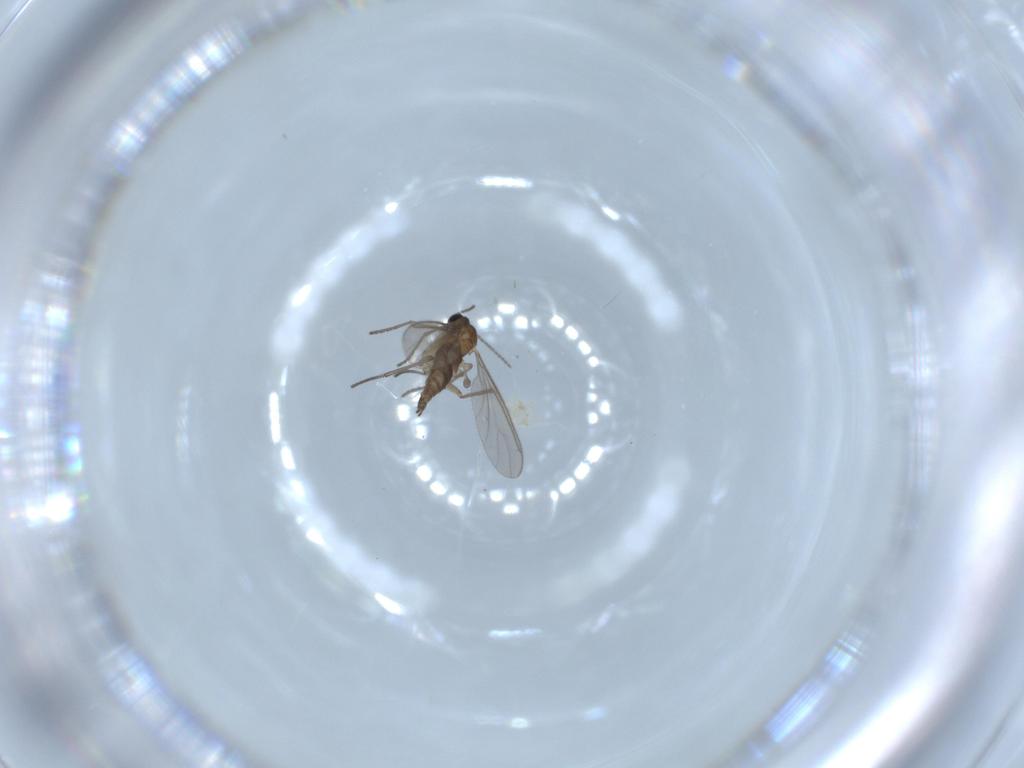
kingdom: Animalia
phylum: Arthropoda
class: Insecta
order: Diptera
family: Sciaridae
